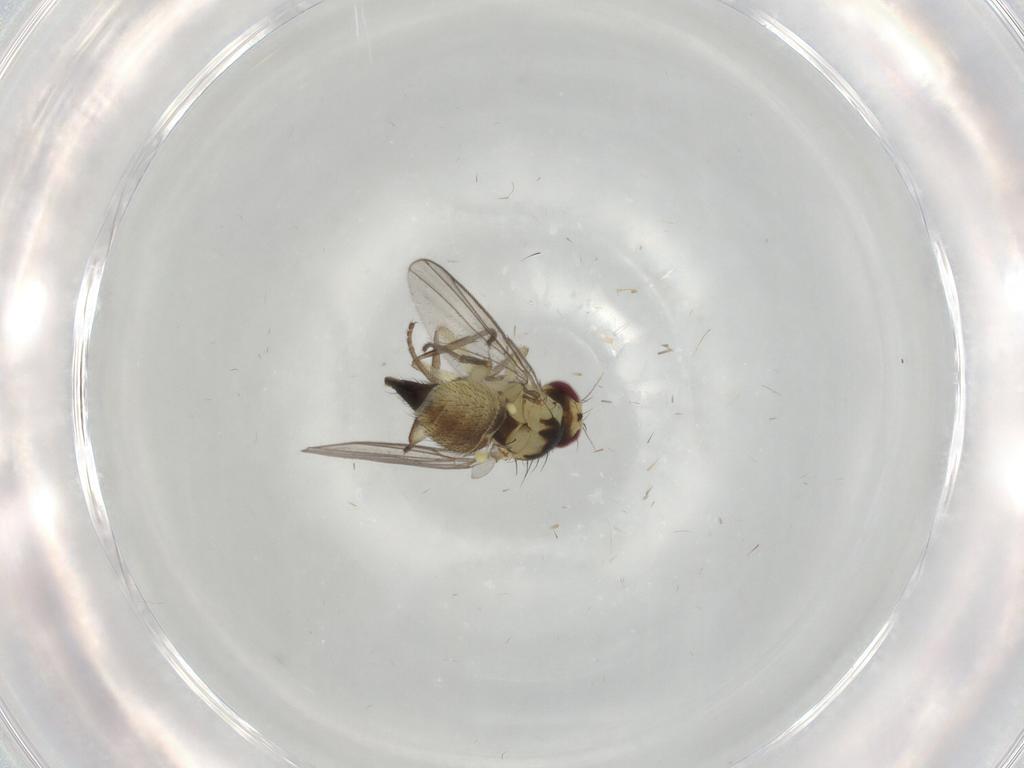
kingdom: Animalia
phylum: Arthropoda
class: Insecta
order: Diptera
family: Agromyzidae
